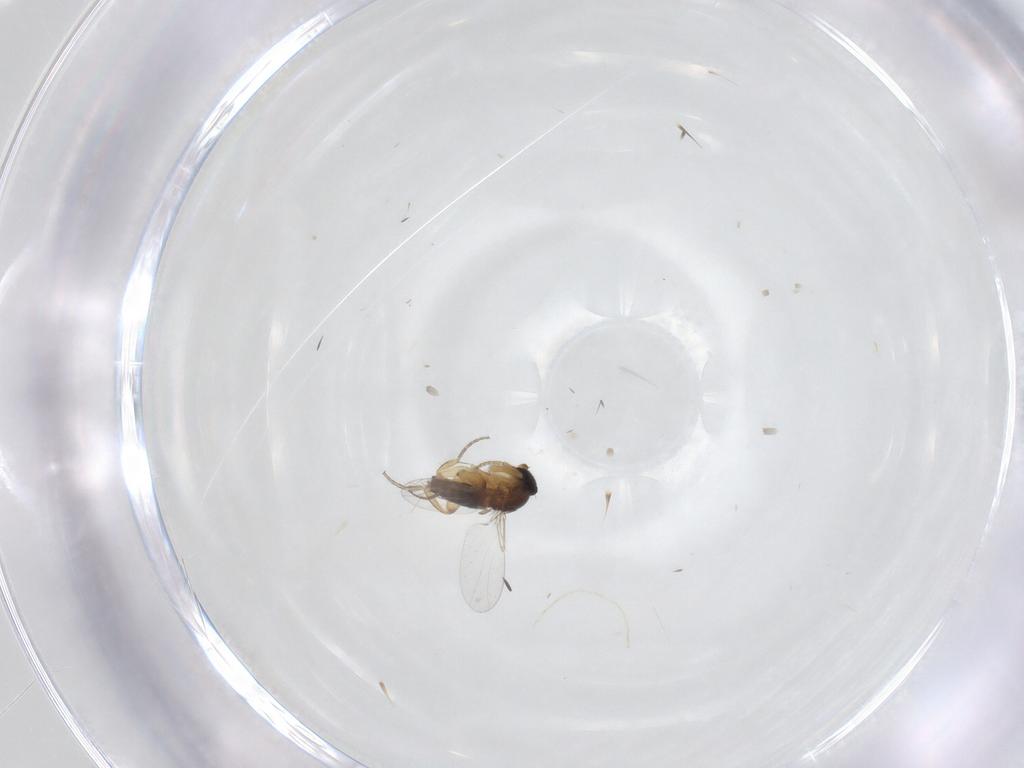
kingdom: Animalia
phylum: Arthropoda
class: Insecta
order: Diptera
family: Phoridae
